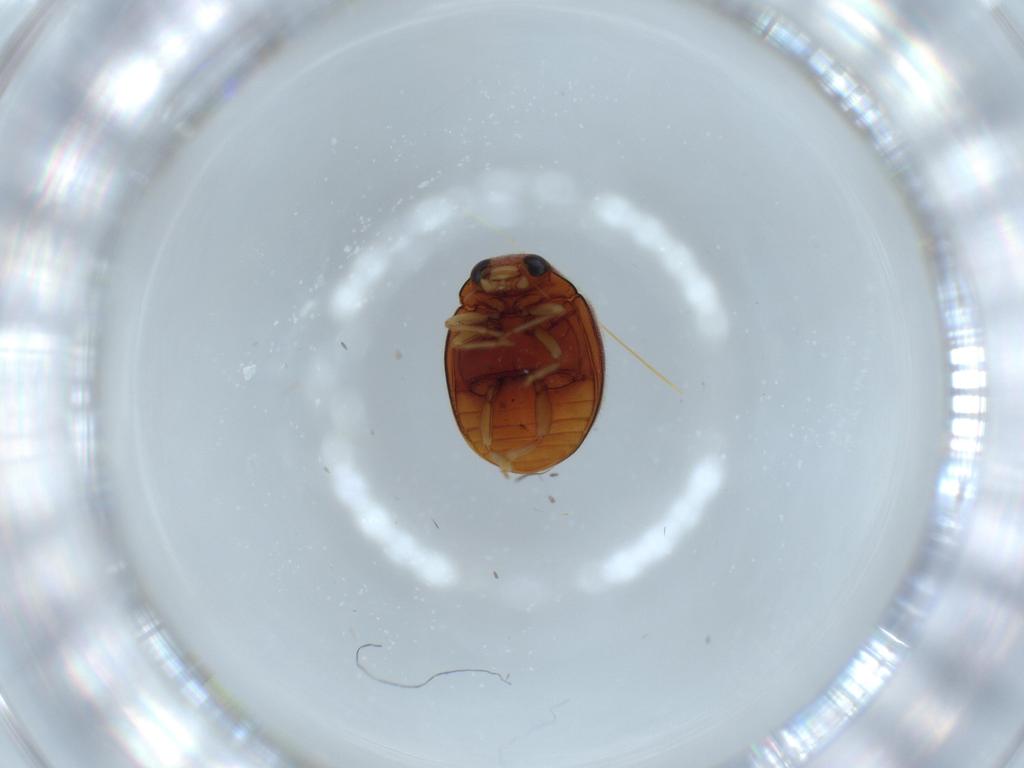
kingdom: Animalia
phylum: Arthropoda
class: Insecta
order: Coleoptera
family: Coccinellidae
